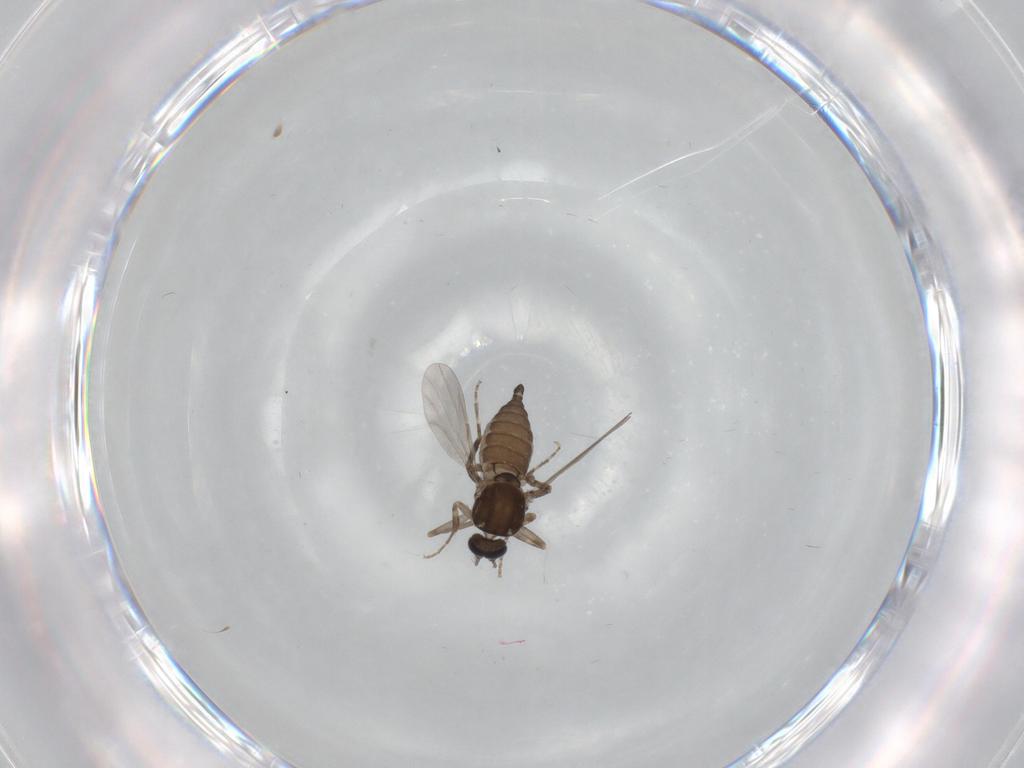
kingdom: Animalia
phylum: Arthropoda
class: Insecta
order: Diptera
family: Ceratopogonidae
